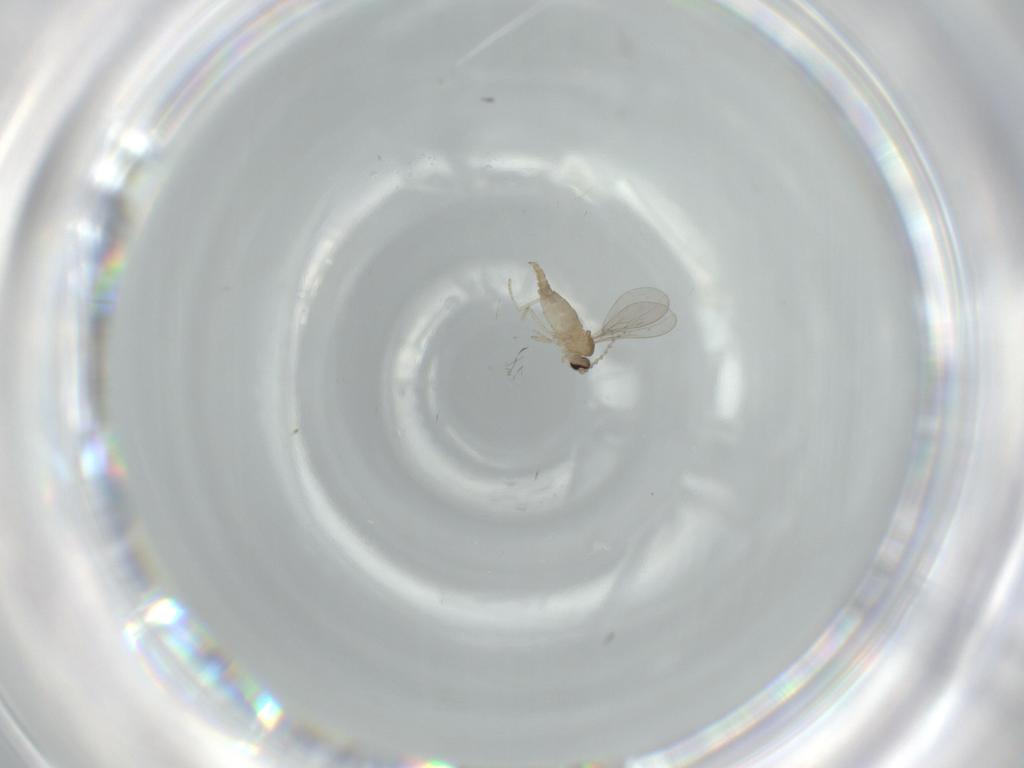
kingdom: Animalia
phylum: Arthropoda
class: Insecta
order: Diptera
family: Cecidomyiidae
